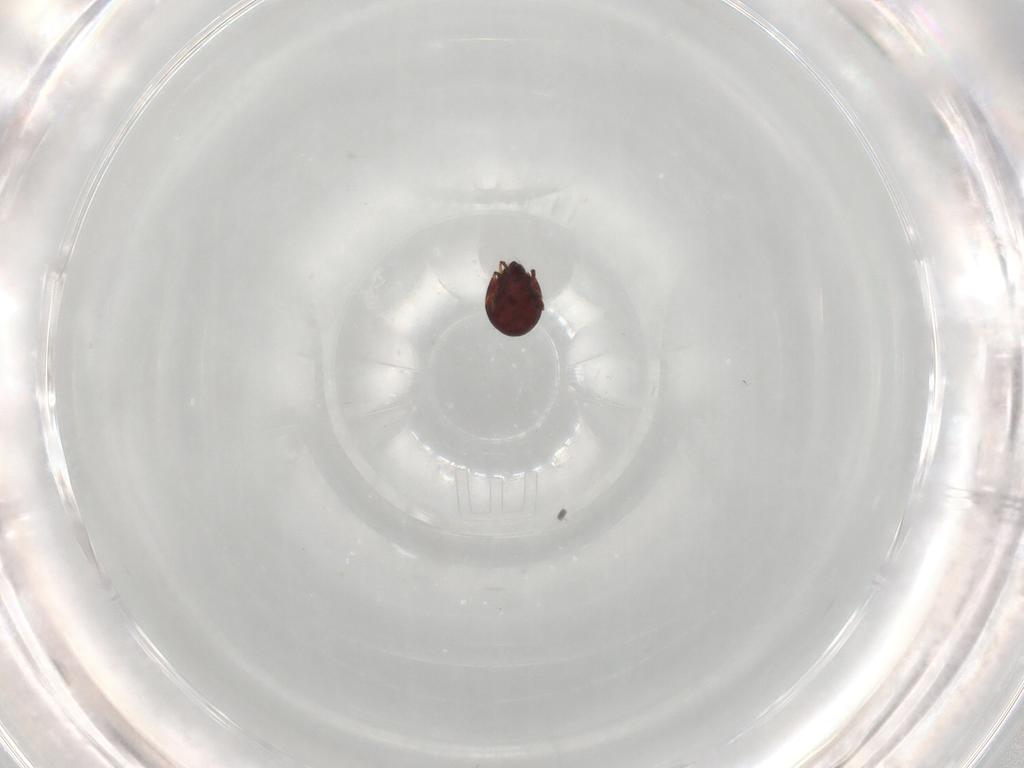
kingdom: Animalia
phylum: Arthropoda
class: Arachnida
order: Sarcoptiformes
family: Humerobatidae
